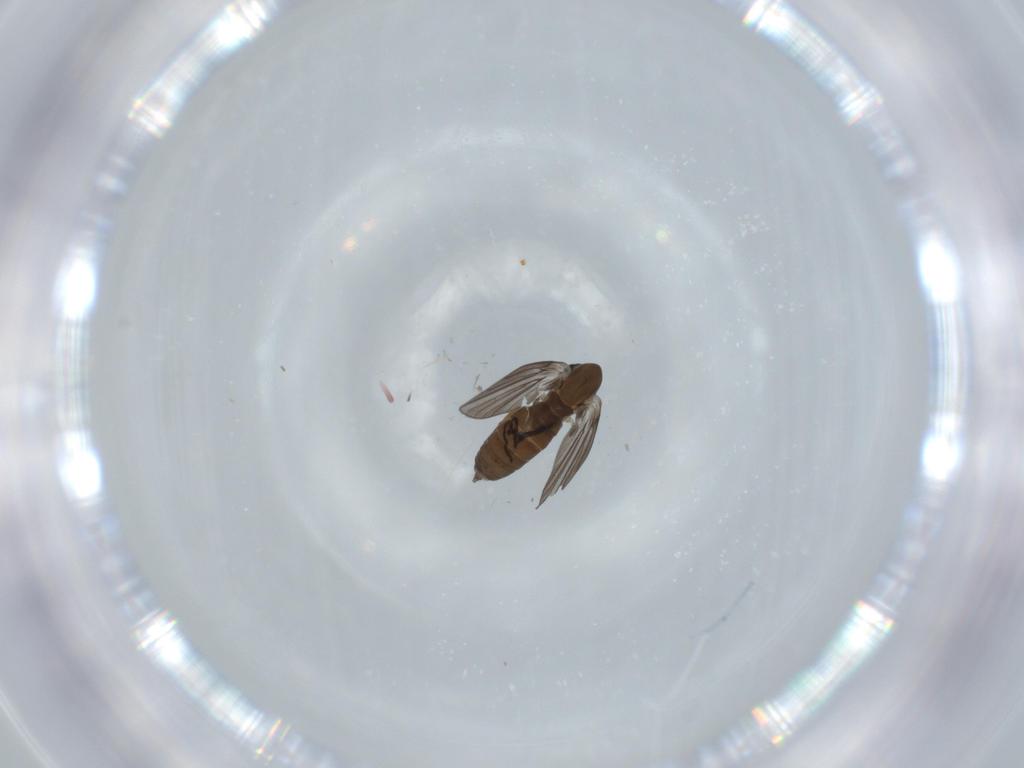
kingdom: Animalia
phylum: Arthropoda
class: Insecta
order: Diptera
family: Psychodidae
